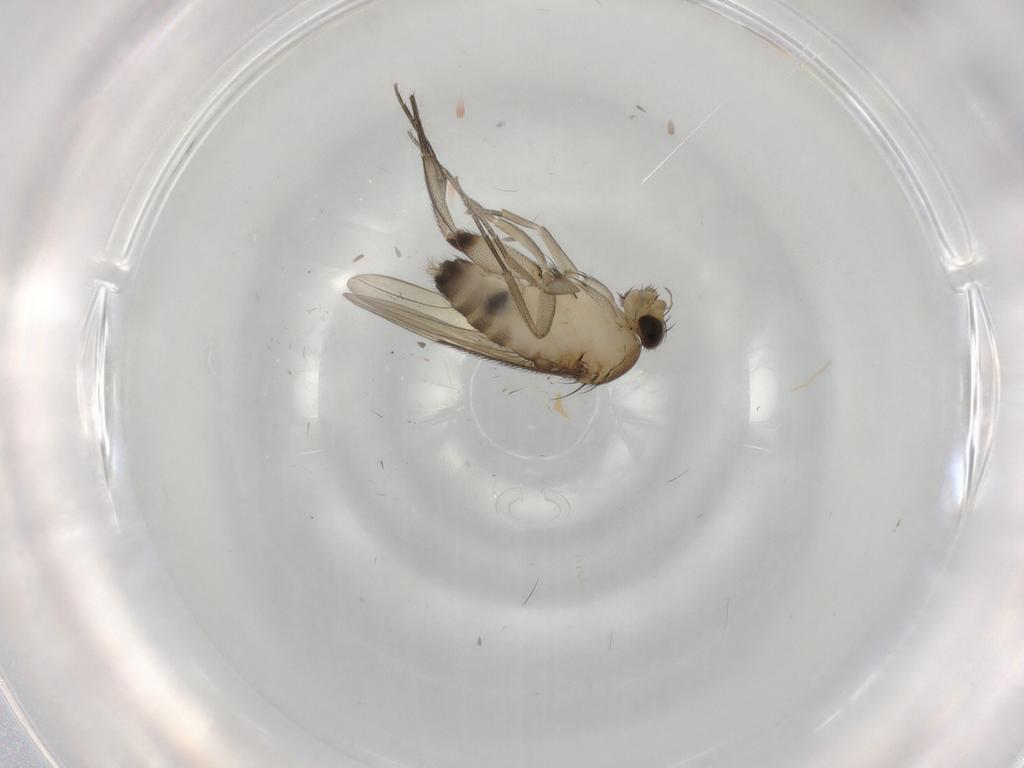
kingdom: Animalia
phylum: Arthropoda
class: Insecta
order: Diptera
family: Phoridae
